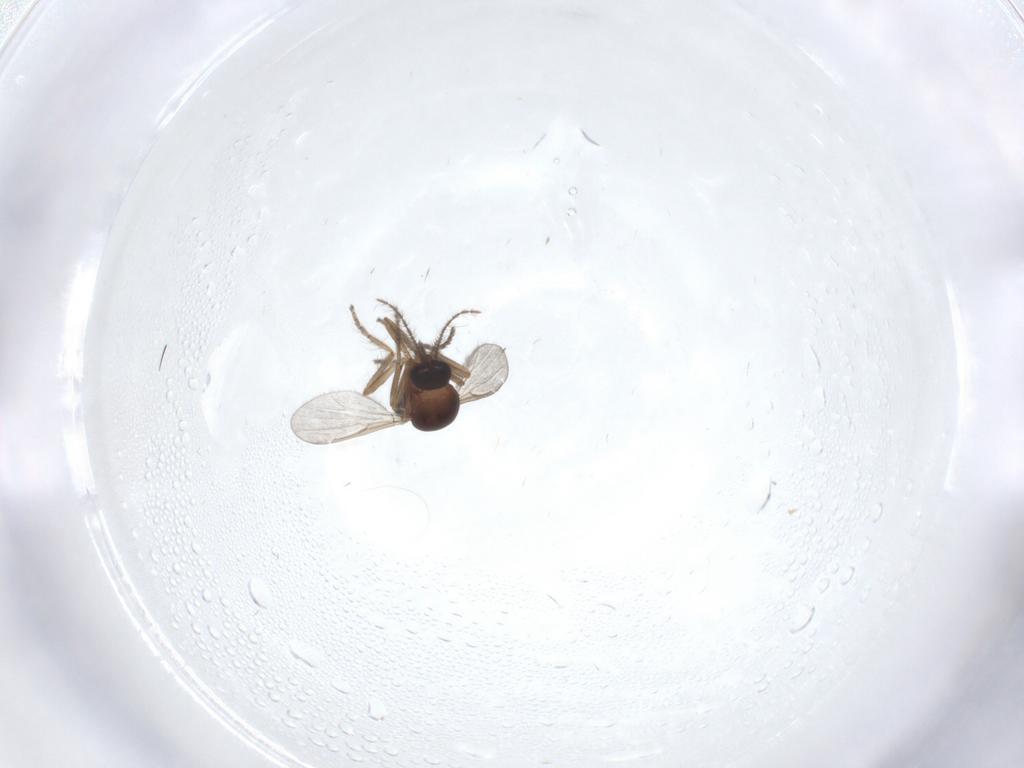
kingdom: Animalia
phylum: Arthropoda
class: Insecta
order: Diptera
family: Ceratopogonidae
